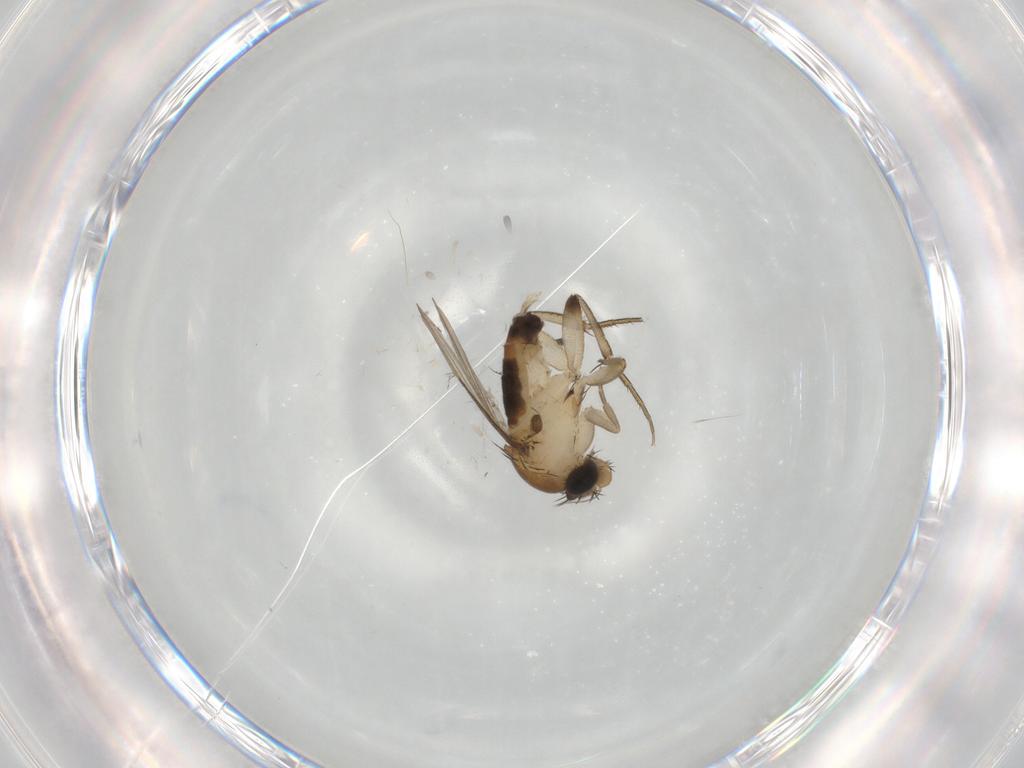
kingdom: Animalia
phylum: Arthropoda
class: Insecta
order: Diptera
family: Phoridae
